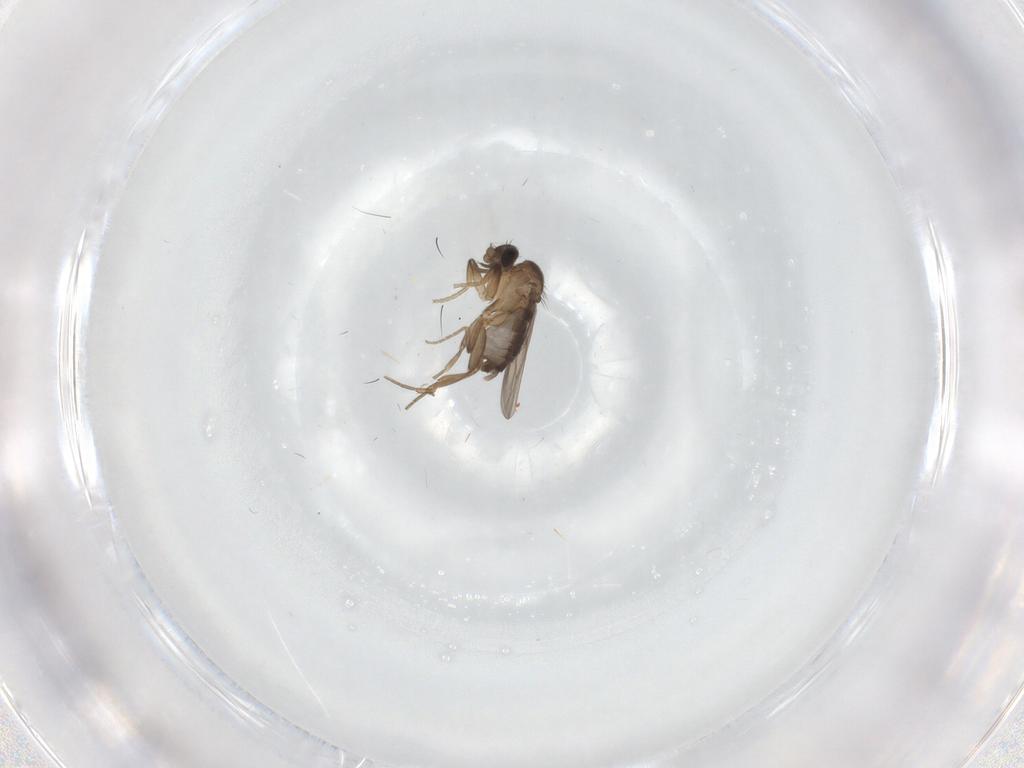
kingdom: Animalia
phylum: Arthropoda
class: Insecta
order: Diptera
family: Phoridae
